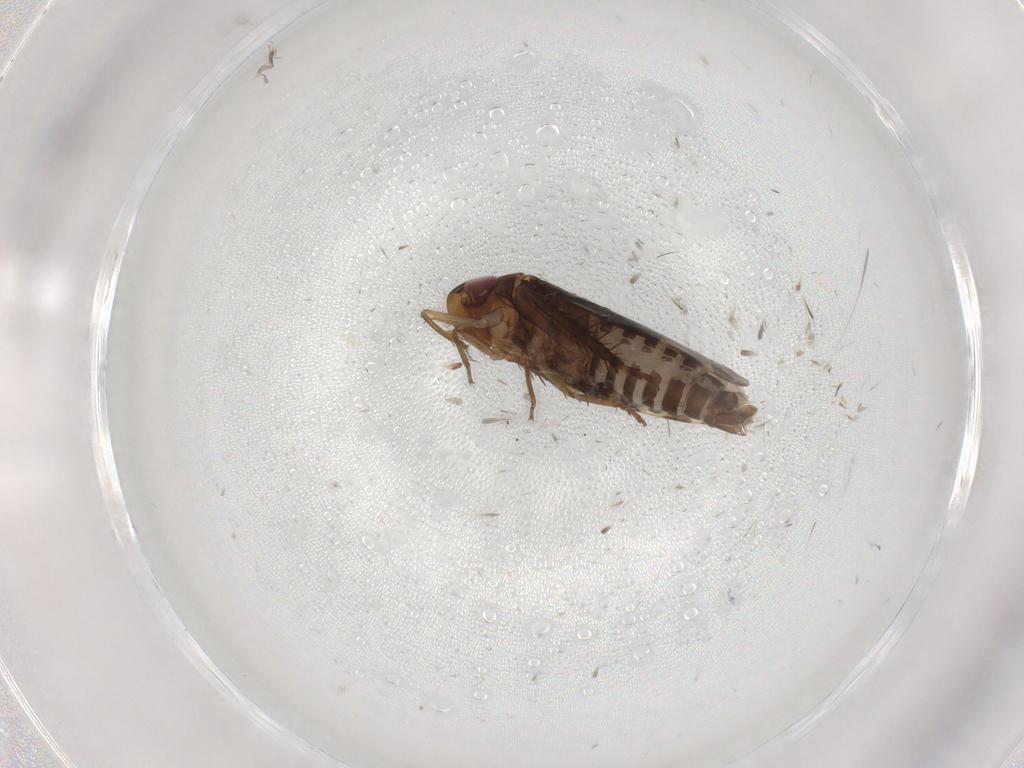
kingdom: Animalia
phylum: Arthropoda
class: Insecta
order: Hemiptera
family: Cicadellidae
